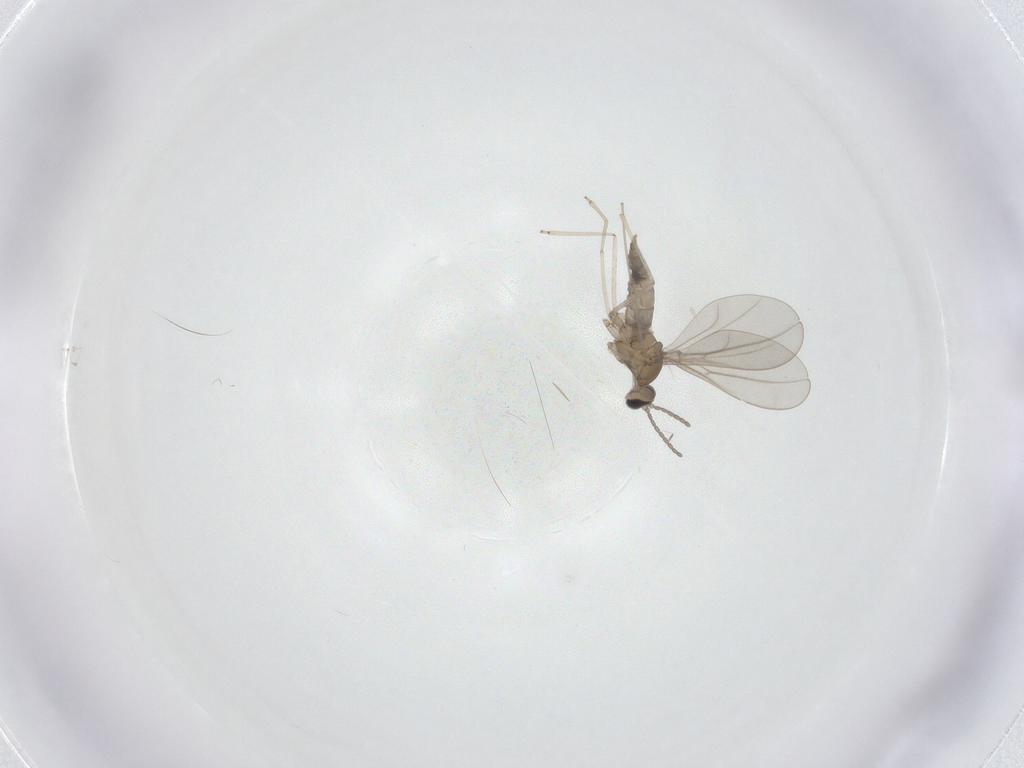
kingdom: Animalia
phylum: Arthropoda
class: Insecta
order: Diptera
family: Cecidomyiidae
